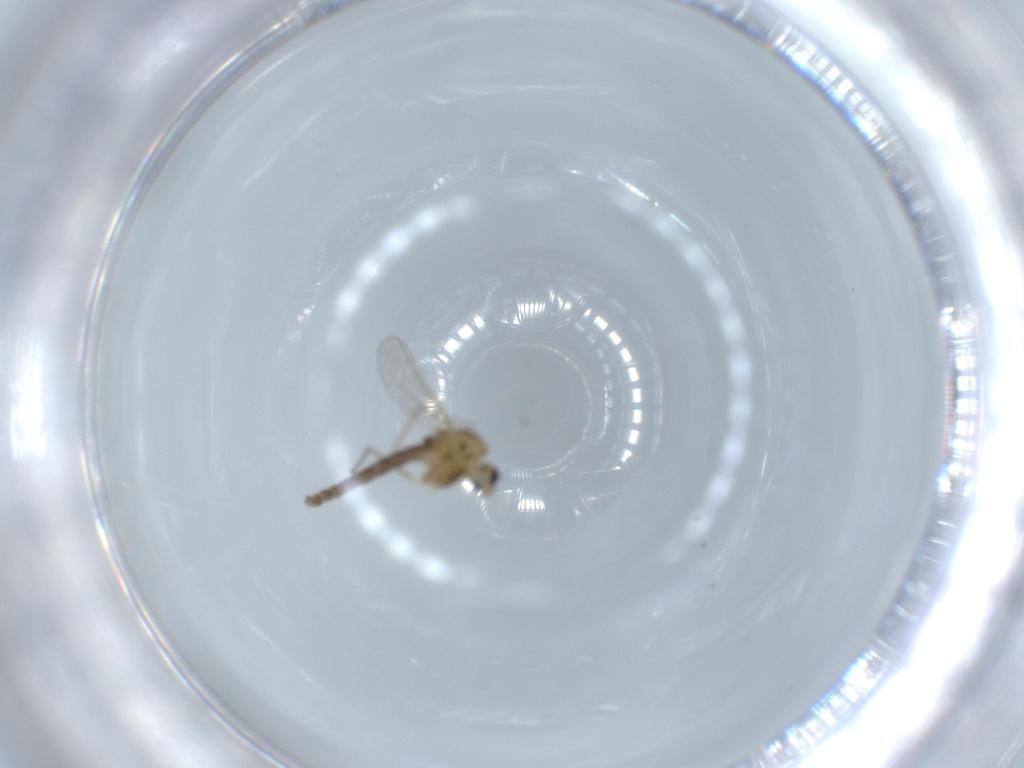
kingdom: Animalia
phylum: Arthropoda
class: Insecta
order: Diptera
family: Chironomidae
